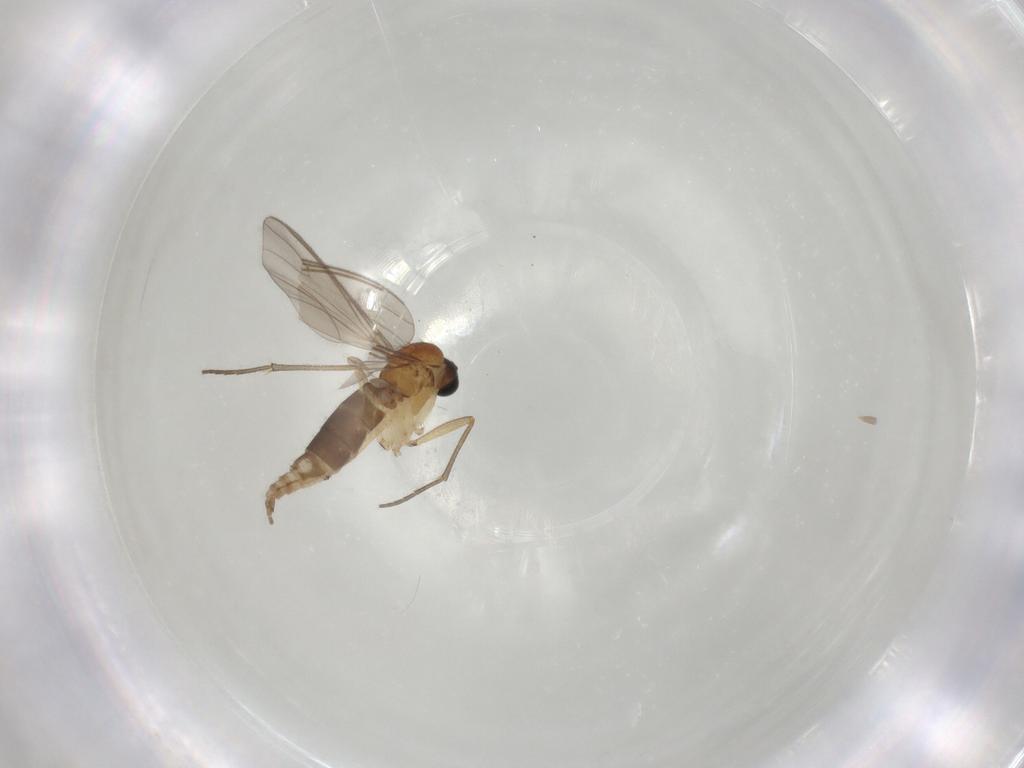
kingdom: Animalia
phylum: Arthropoda
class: Insecta
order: Diptera
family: Sciaridae
